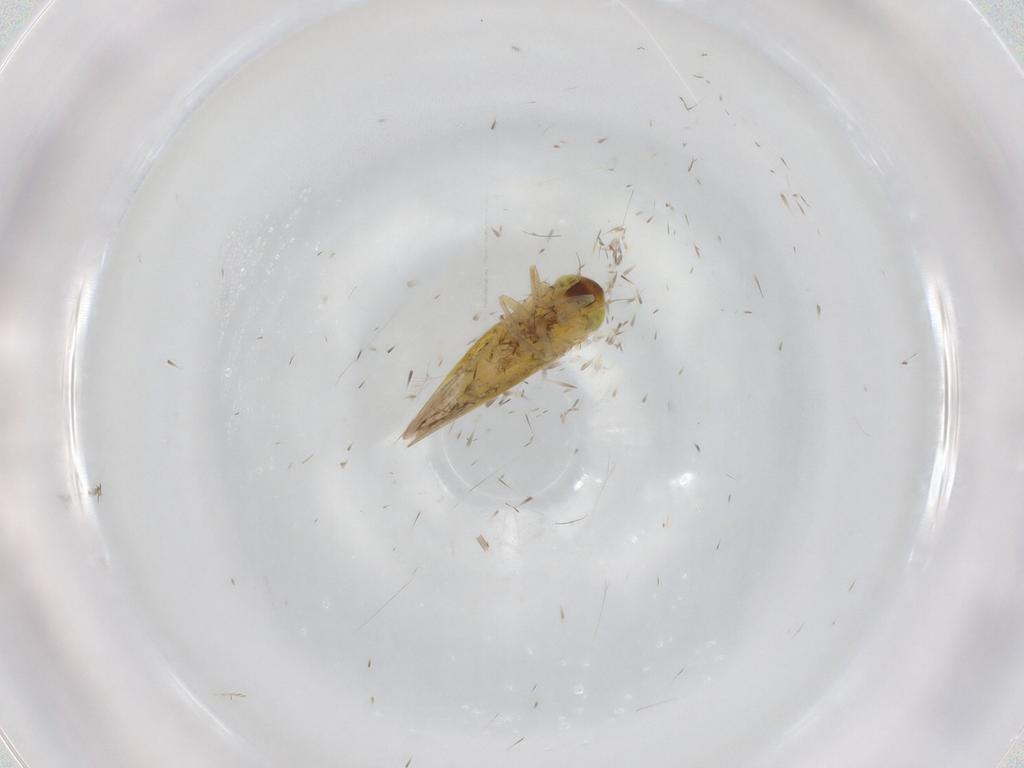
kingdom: Animalia
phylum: Arthropoda
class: Insecta
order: Hemiptera
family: Cicadellidae
